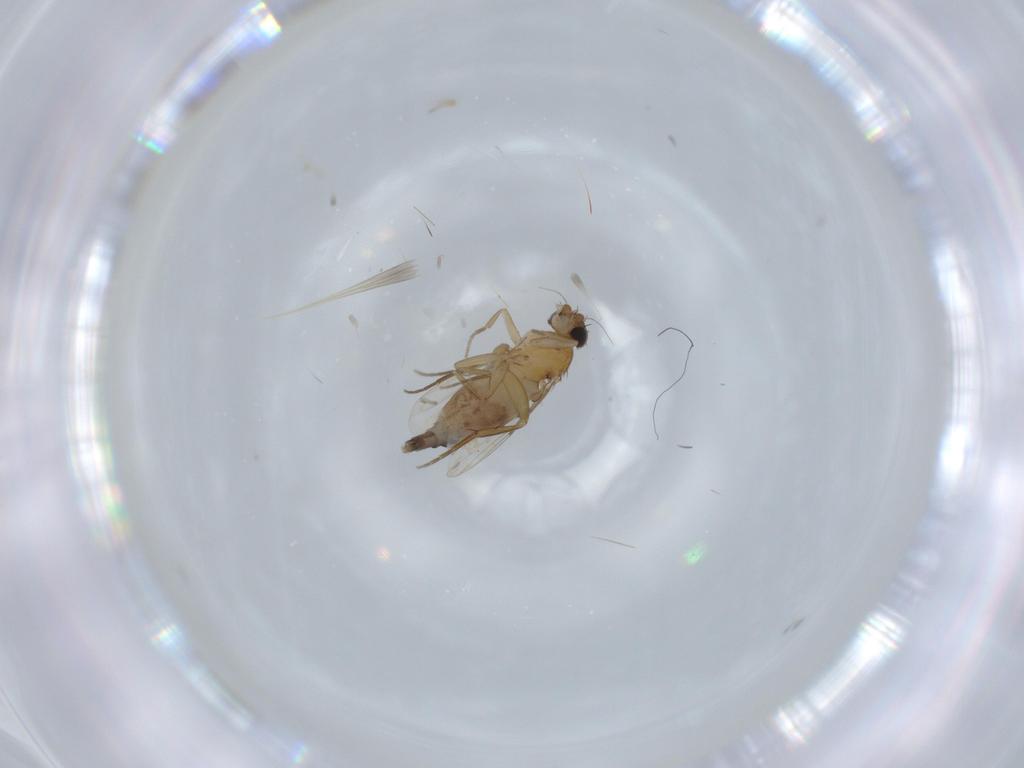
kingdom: Animalia
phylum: Arthropoda
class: Insecta
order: Diptera
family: Phoridae
